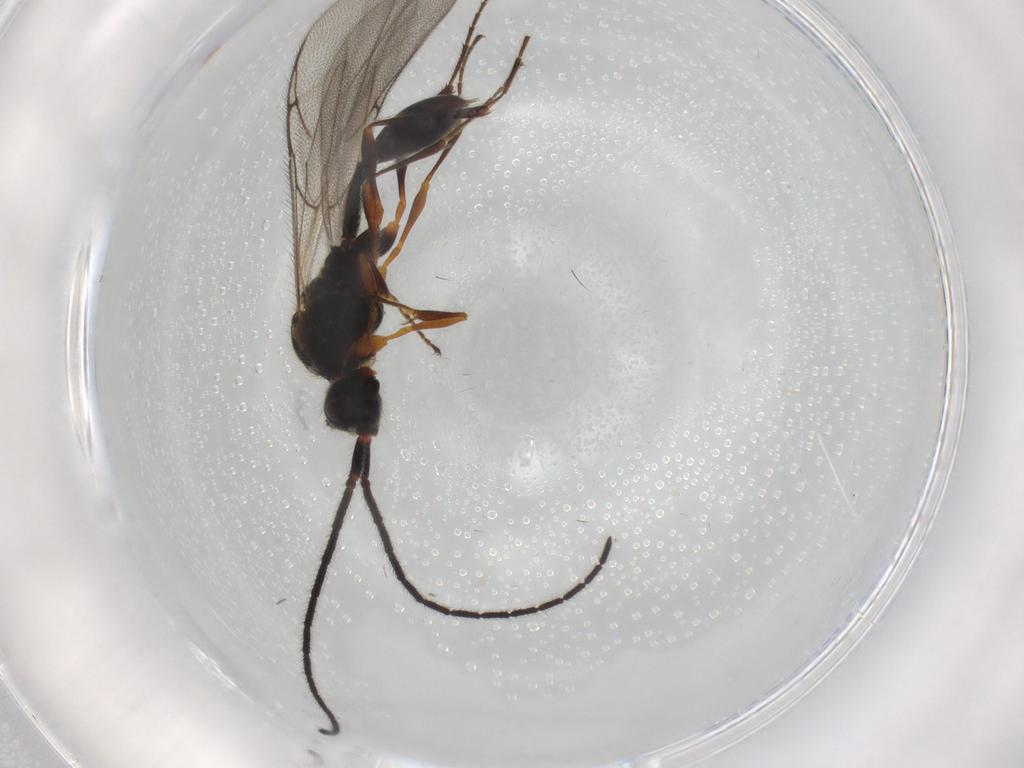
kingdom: Animalia
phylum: Arthropoda
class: Insecta
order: Hymenoptera
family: Diapriidae
